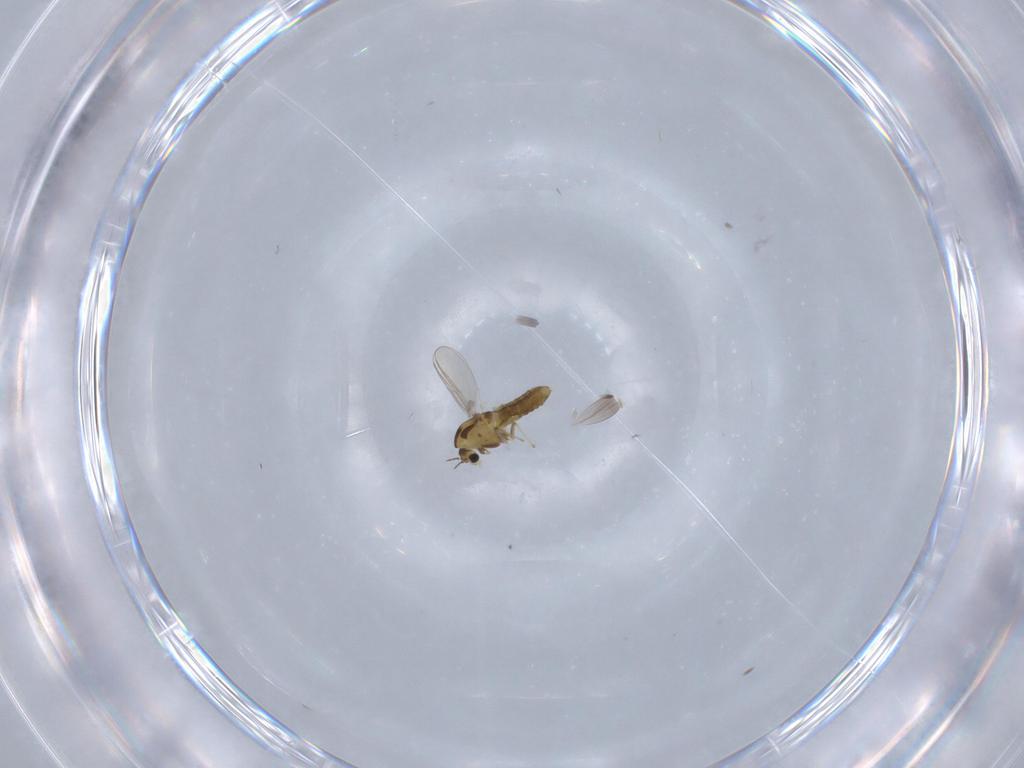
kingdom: Animalia
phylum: Arthropoda
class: Insecta
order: Diptera
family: Chironomidae
